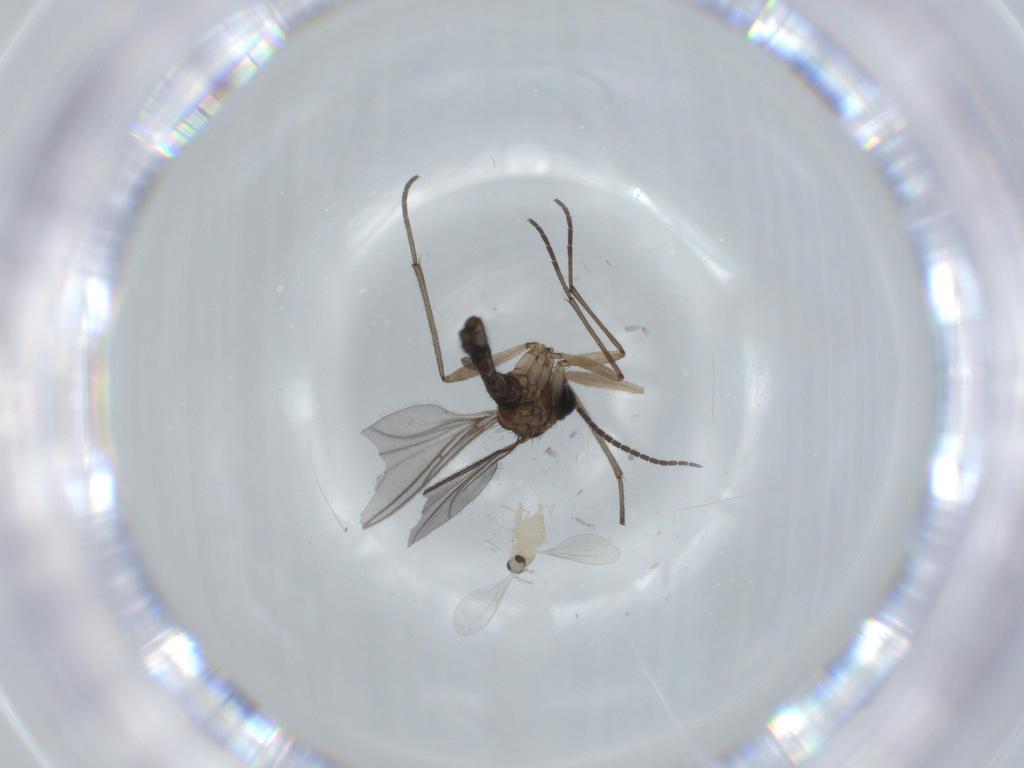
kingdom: Animalia
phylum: Arthropoda
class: Insecta
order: Diptera
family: Cecidomyiidae
